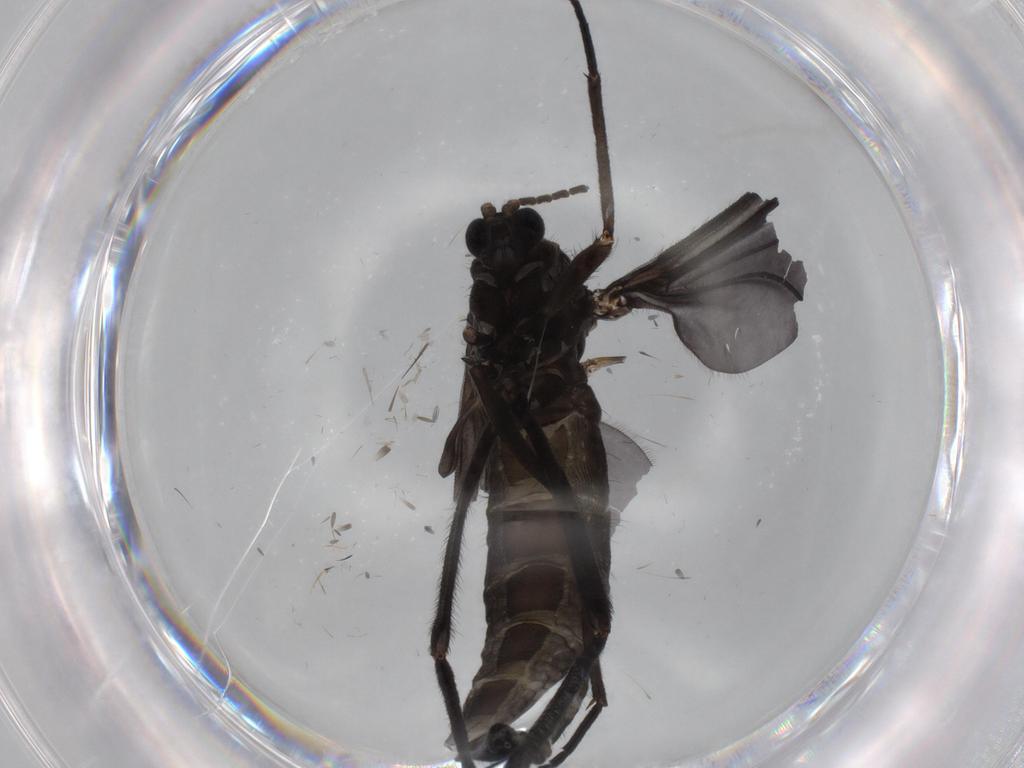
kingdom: Animalia
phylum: Arthropoda
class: Insecta
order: Diptera
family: Sciaridae
